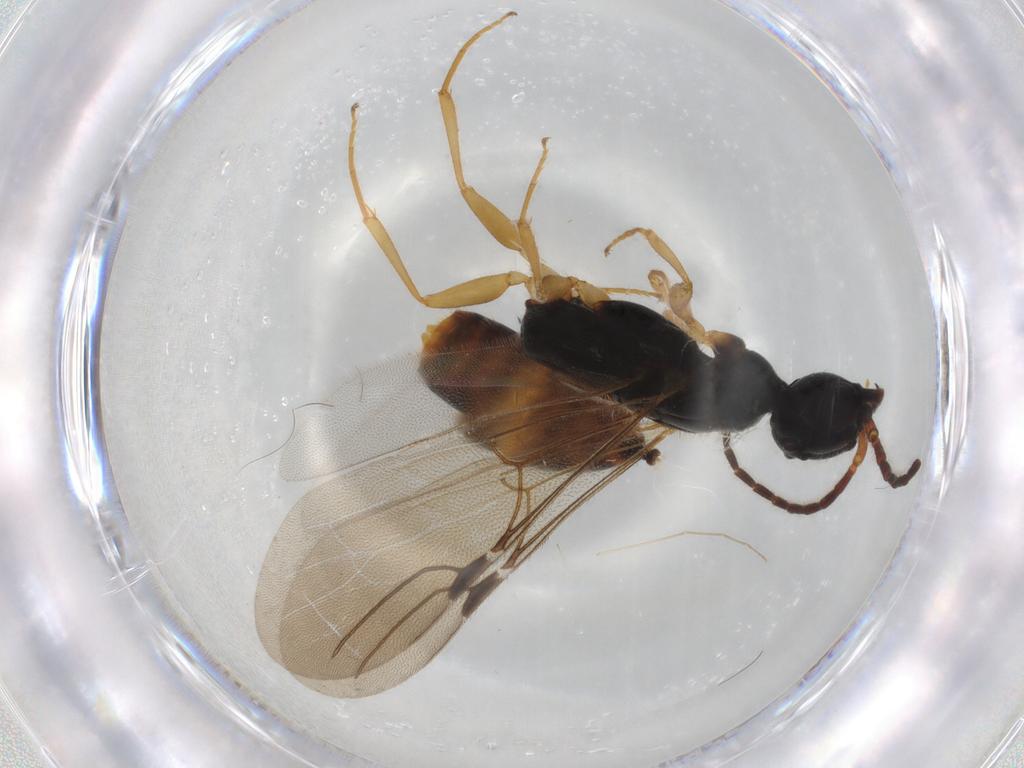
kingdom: Animalia
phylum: Arthropoda
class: Insecta
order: Hymenoptera
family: Bethylidae
